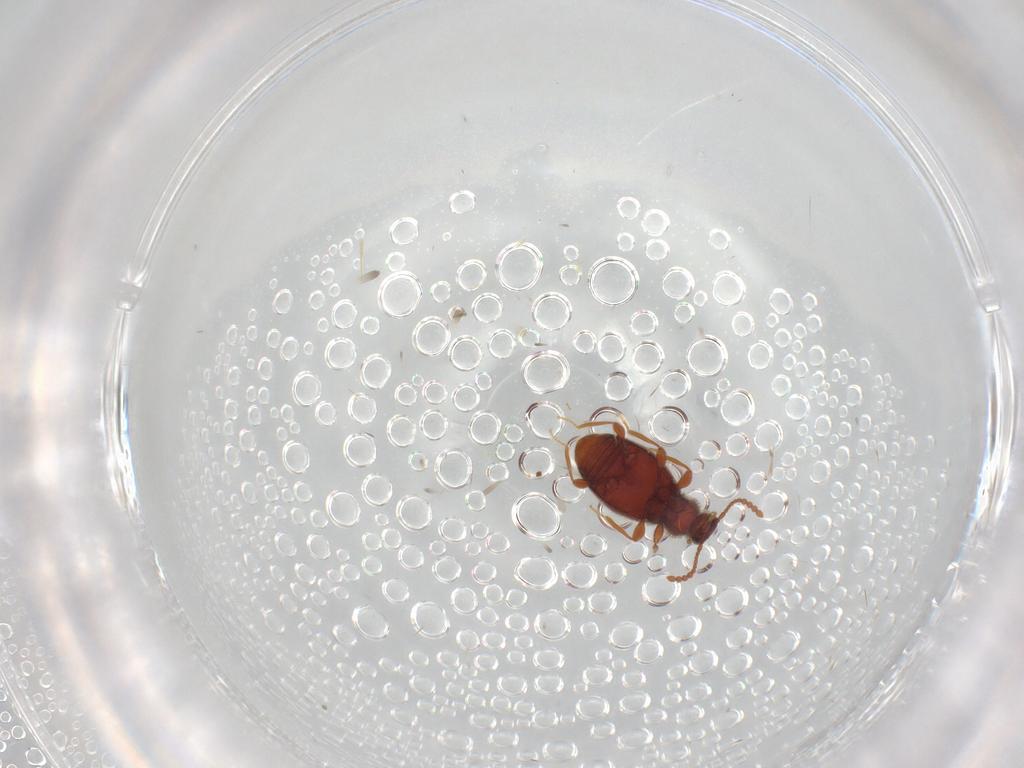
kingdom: Animalia
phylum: Arthropoda
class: Insecta
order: Coleoptera
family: Staphylinidae
